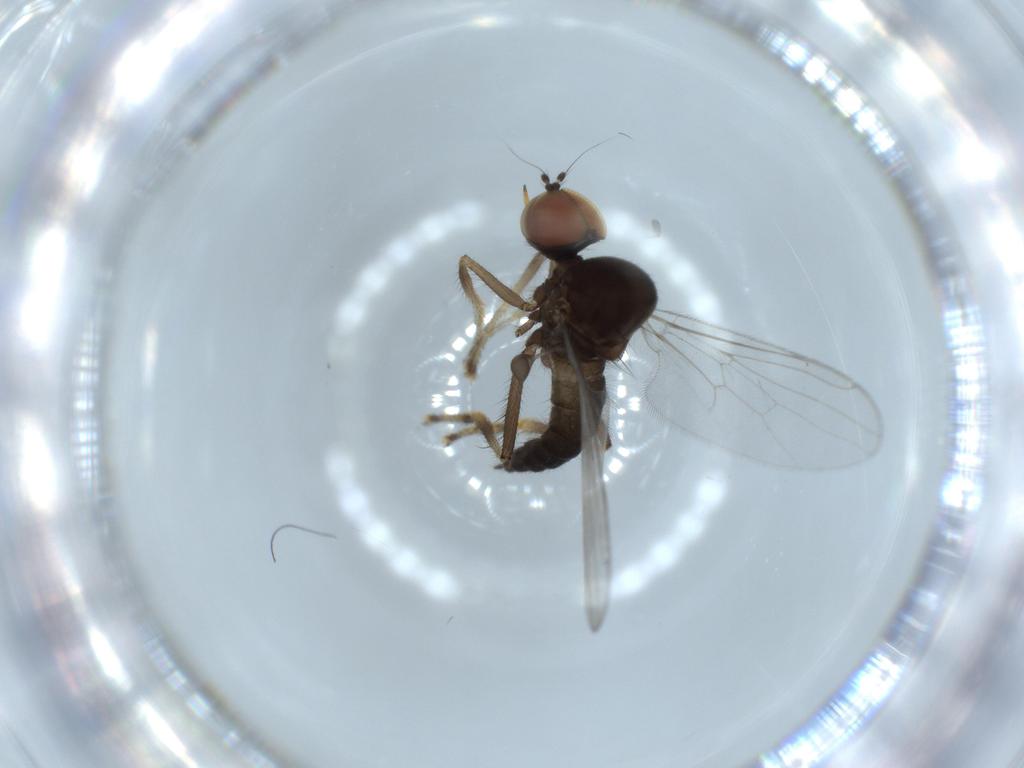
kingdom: Animalia
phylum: Arthropoda
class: Insecta
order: Diptera
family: Hybotidae
